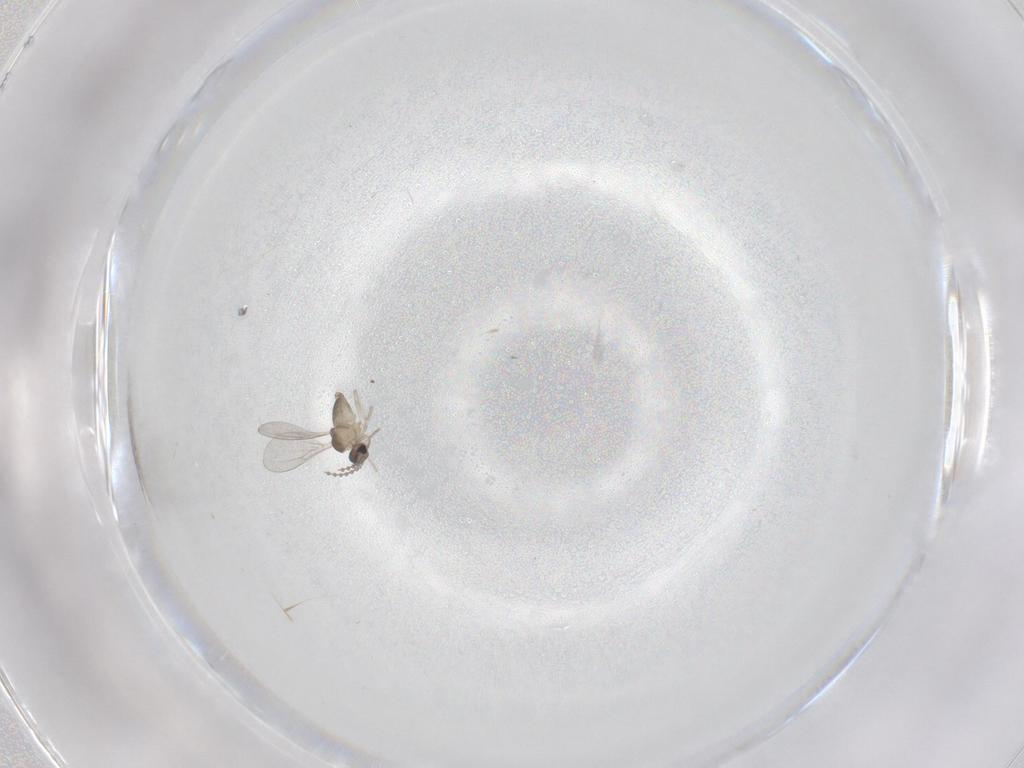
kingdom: Animalia
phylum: Arthropoda
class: Insecta
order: Diptera
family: Cecidomyiidae
